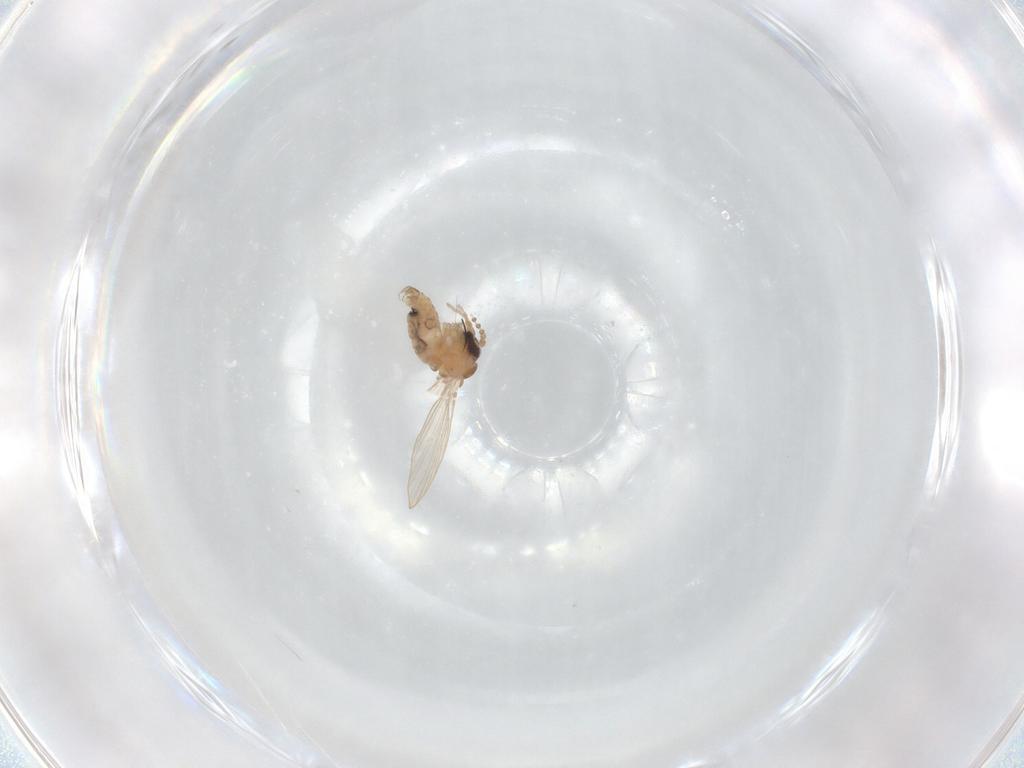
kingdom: Animalia
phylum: Arthropoda
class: Insecta
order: Diptera
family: Psychodidae
